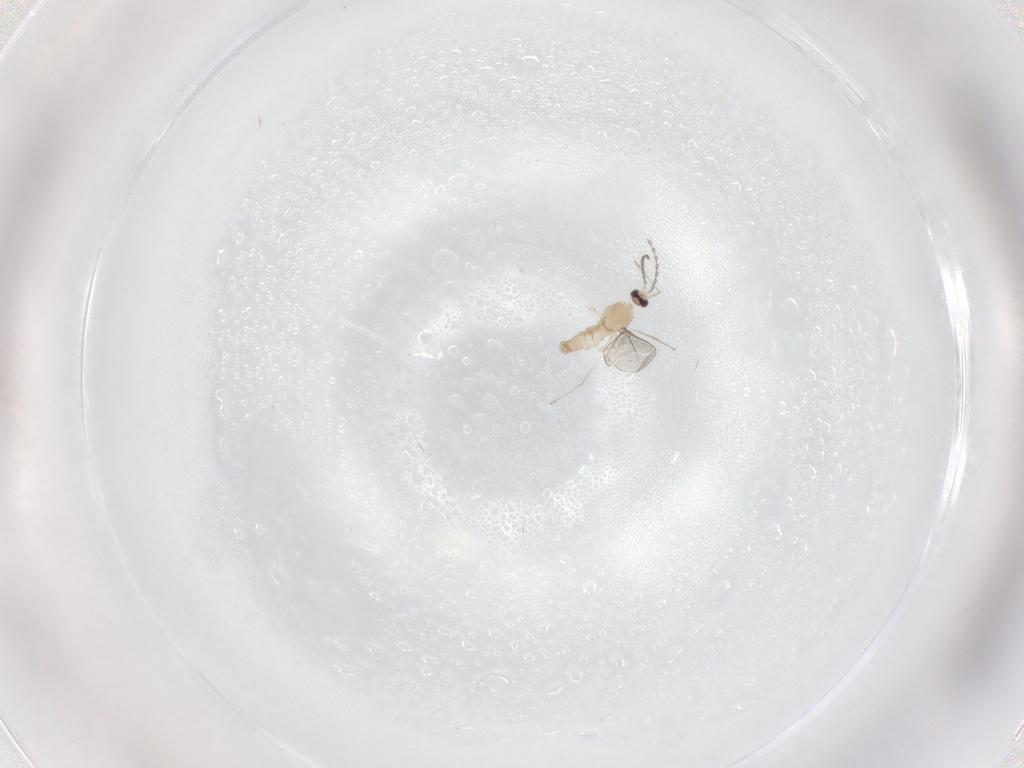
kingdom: Animalia
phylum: Arthropoda
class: Insecta
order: Diptera
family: Cecidomyiidae
